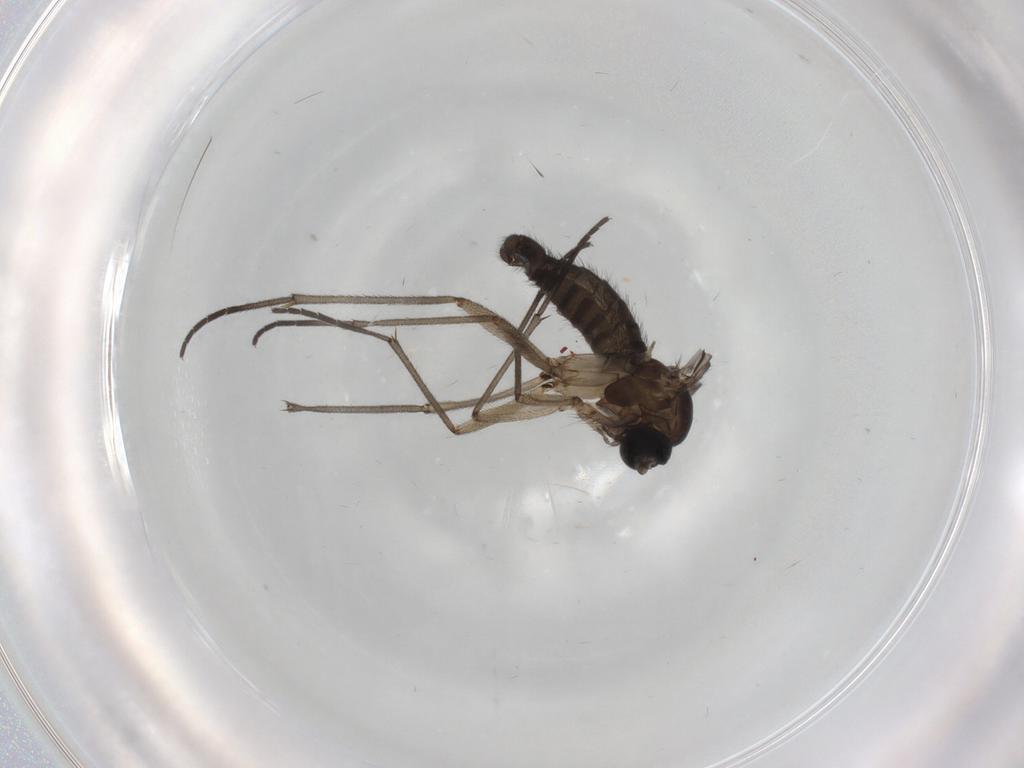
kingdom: Animalia
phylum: Arthropoda
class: Insecta
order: Diptera
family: Sciaridae
